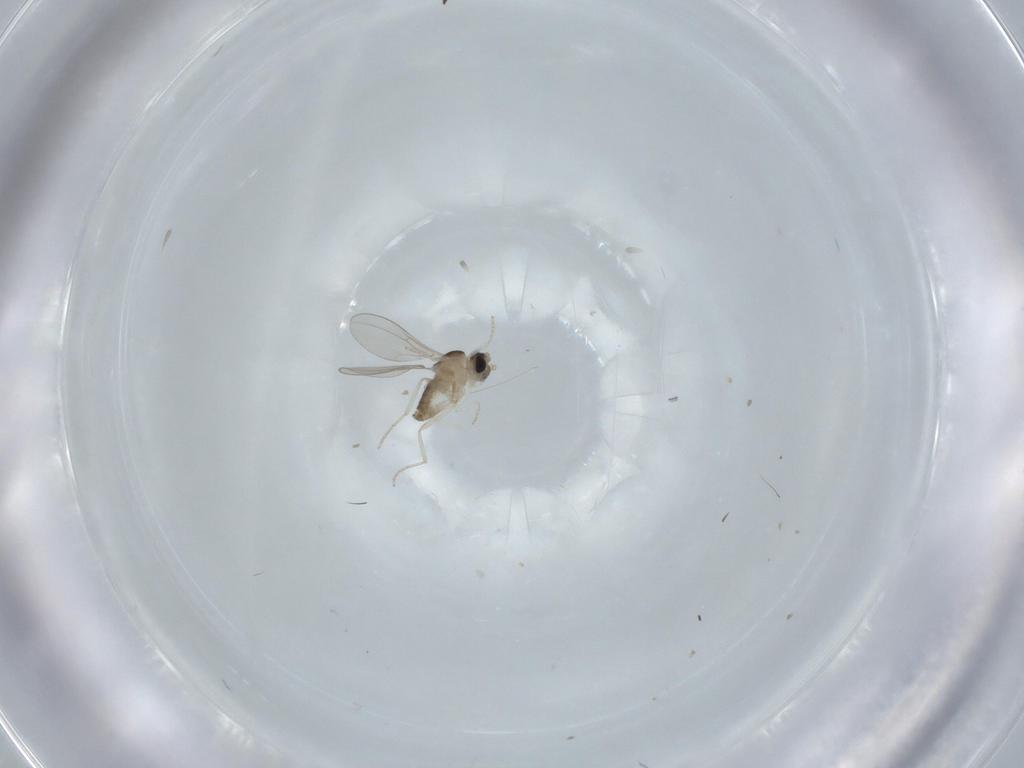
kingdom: Animalia
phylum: Arthropoda
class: Insecta
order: Diptera
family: Cecidomyiidae
